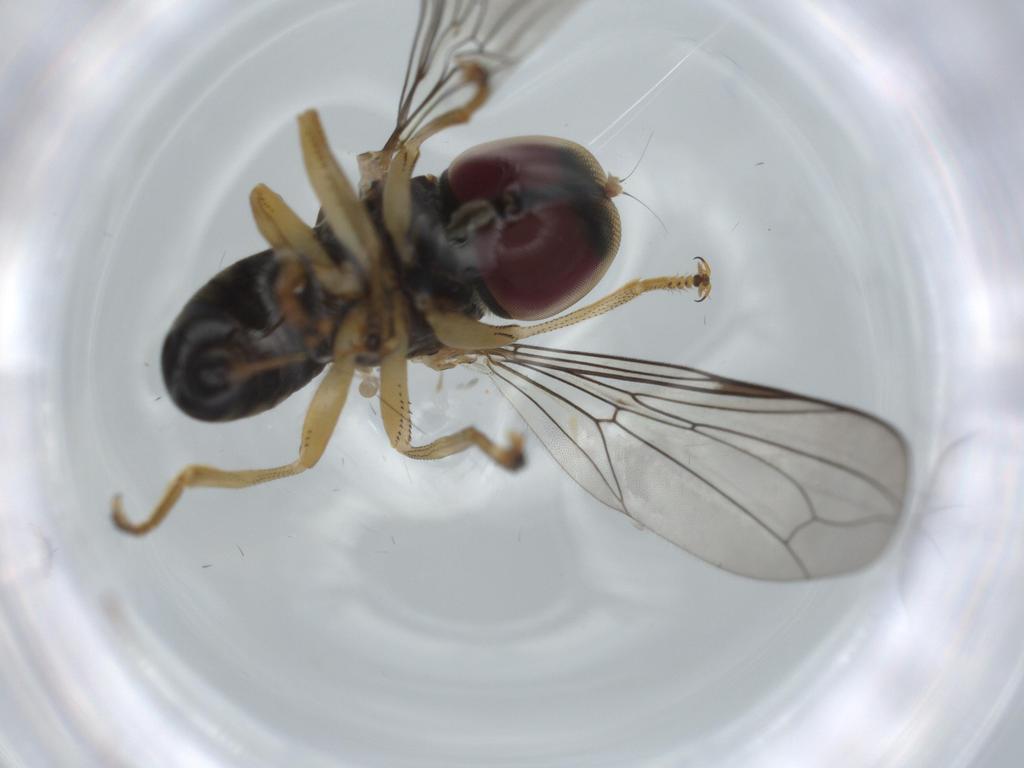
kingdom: Animalia
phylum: Arthropoda
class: Insecta
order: Diptera
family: Pipunculidae
